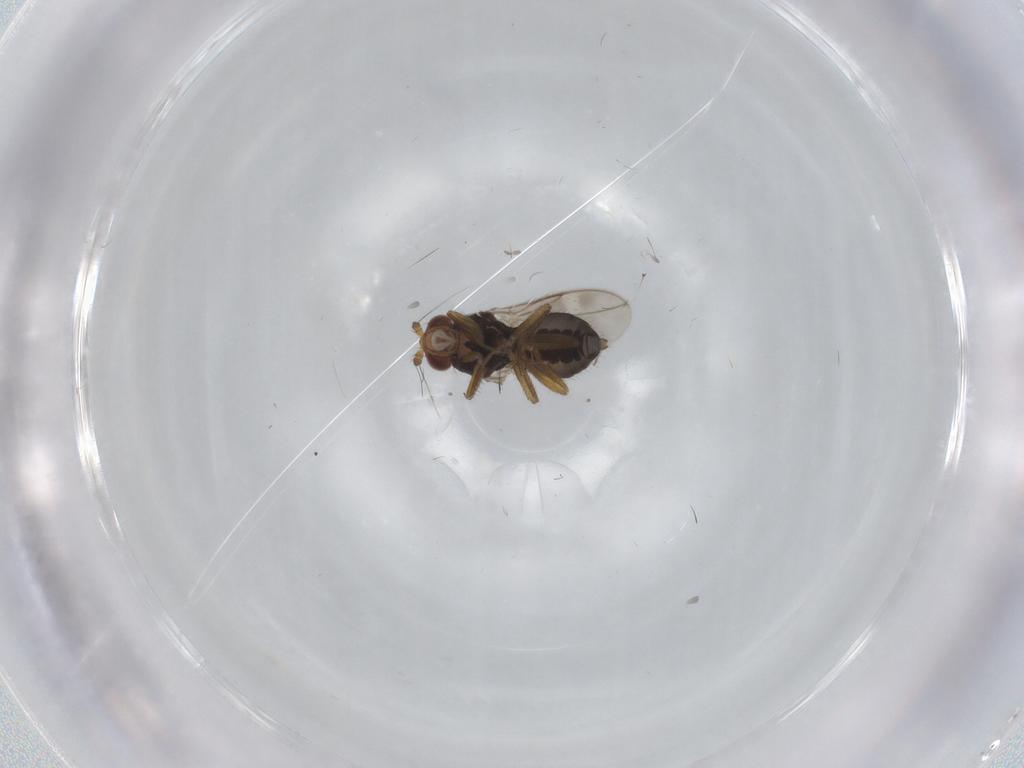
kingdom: Animalia
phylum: Arthropoda
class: Insecta
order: Diptera
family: Sphaeroceridae
